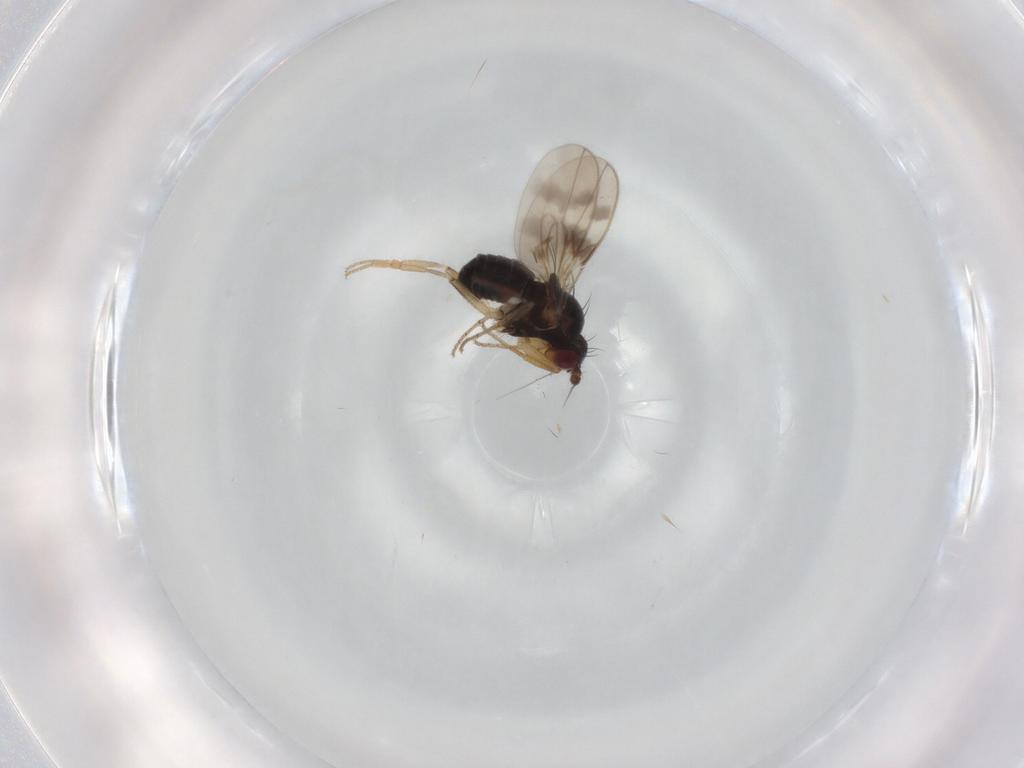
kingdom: Animalia
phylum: Arthropoda
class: Insecta
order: Diptera
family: Sphaeroceridae
